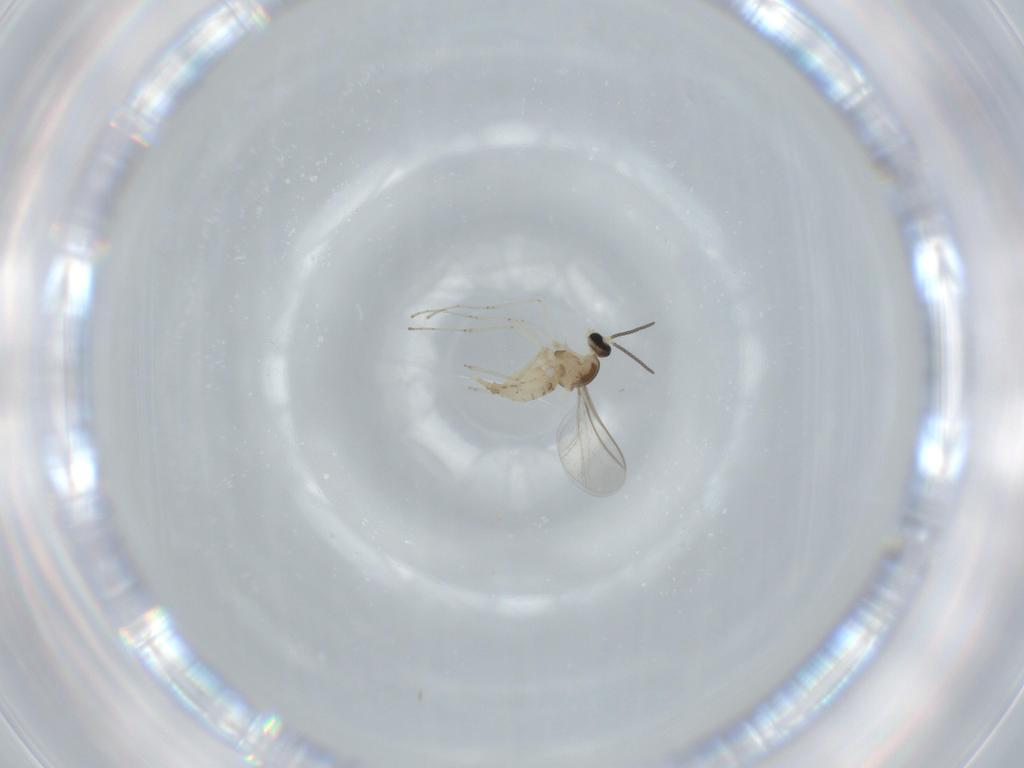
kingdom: Animalia
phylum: Arthropoda
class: Insecta
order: Diptera
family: Cecidomyiidae
